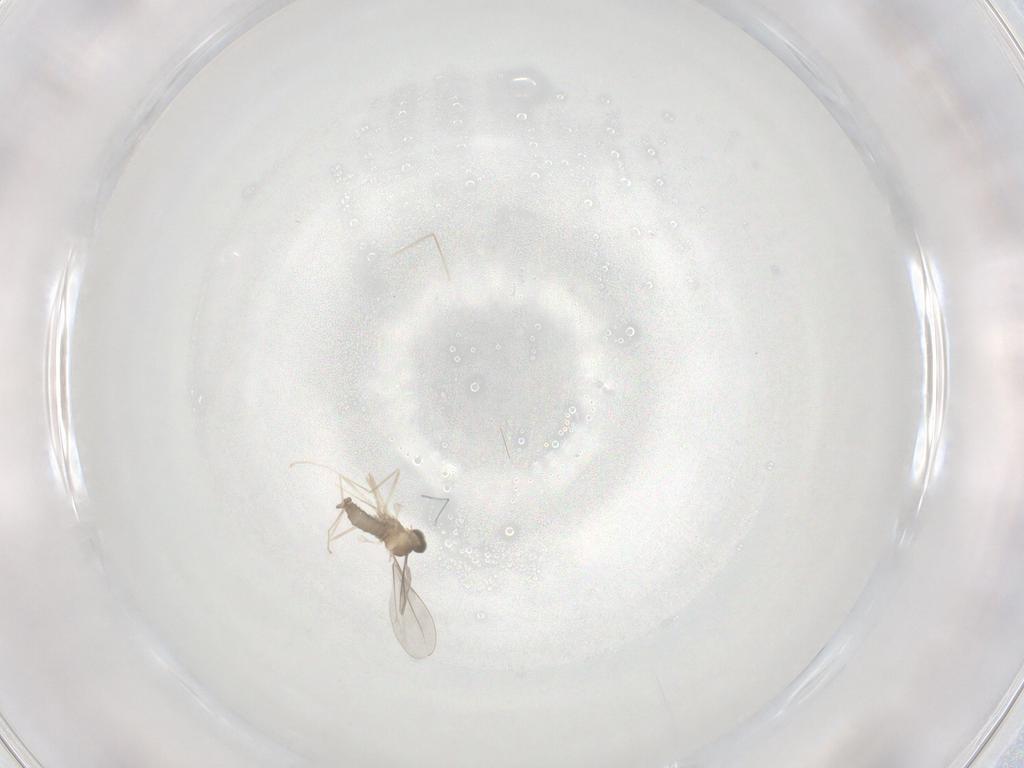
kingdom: Animalia
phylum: Arthropoda
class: Insecta
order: Diptera
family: Cecidomyiidae
